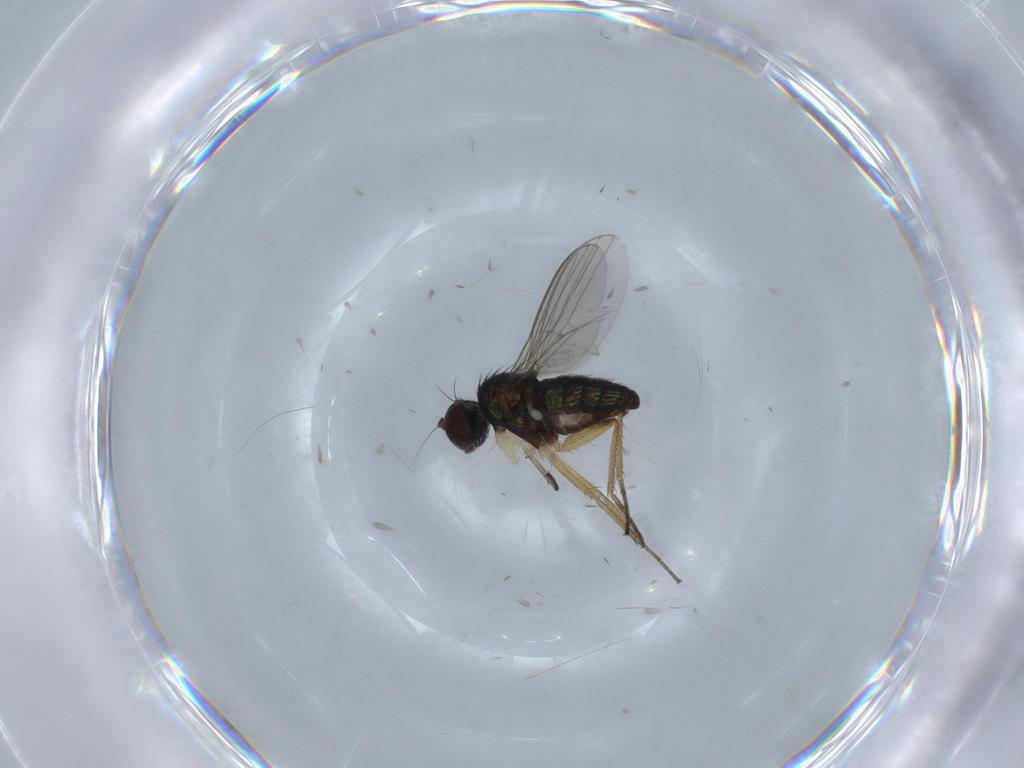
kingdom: Animalia
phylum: Arthropoda
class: Insecta
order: Diptera
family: Dolichopodidae
